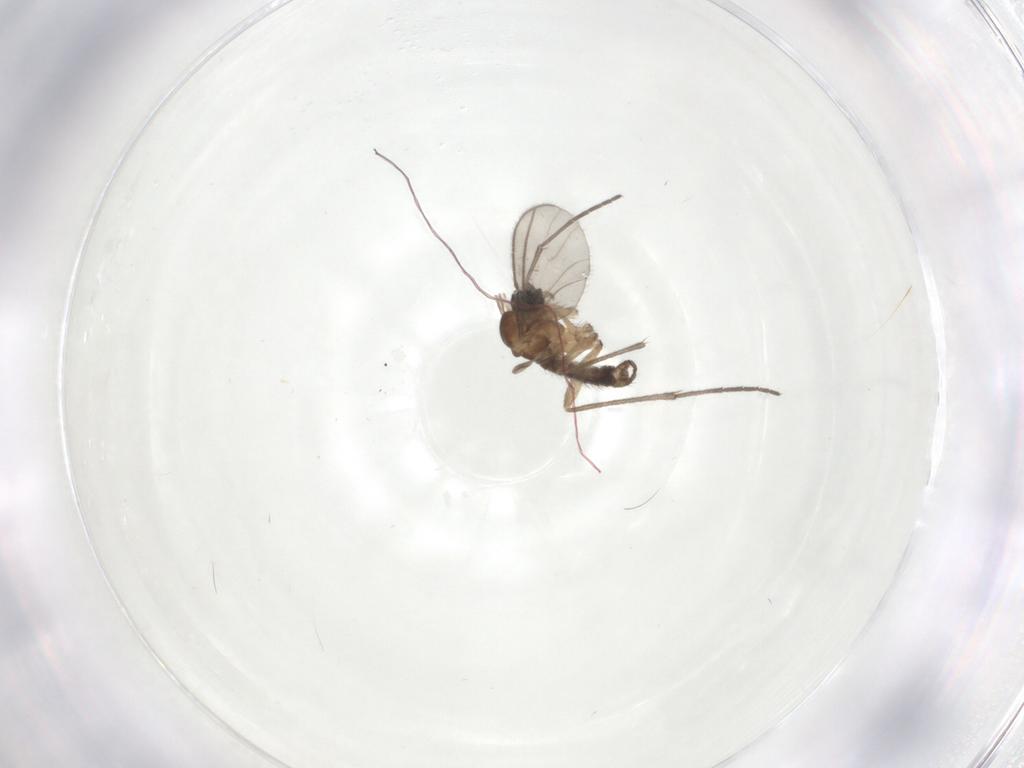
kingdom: Animalia
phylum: Arthropoda
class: Insecta
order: Diptera
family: Sciaridae
